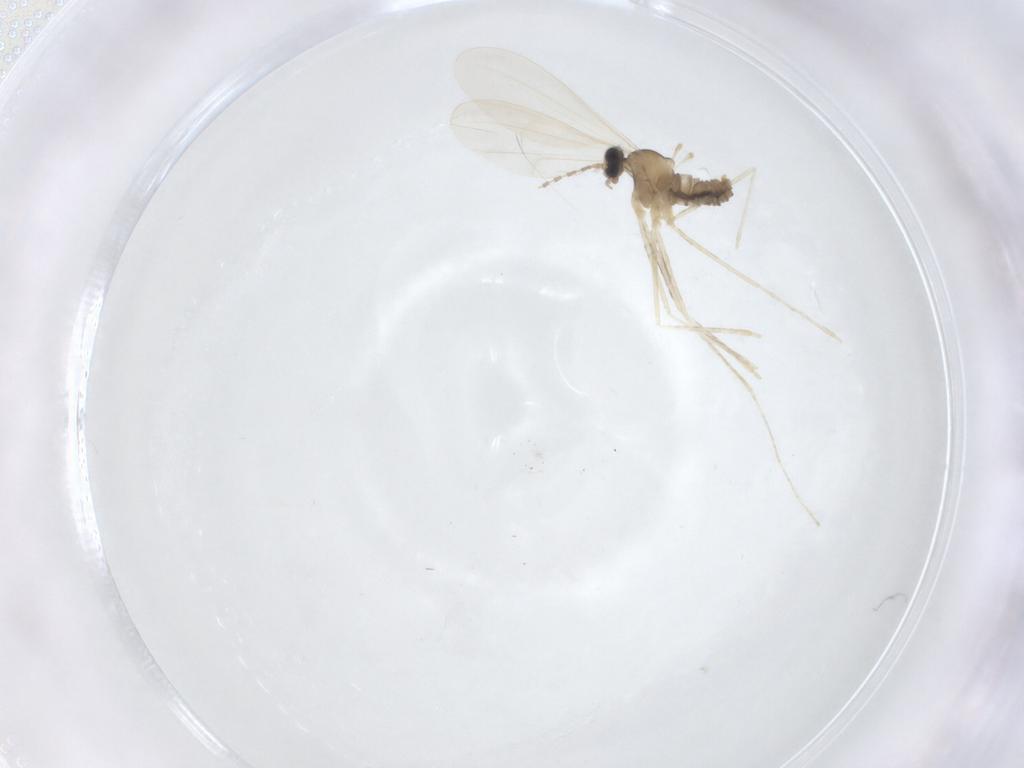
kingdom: Animalia
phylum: Arthropoda
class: Insecta
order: Diptera
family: Cecidomyiidae
